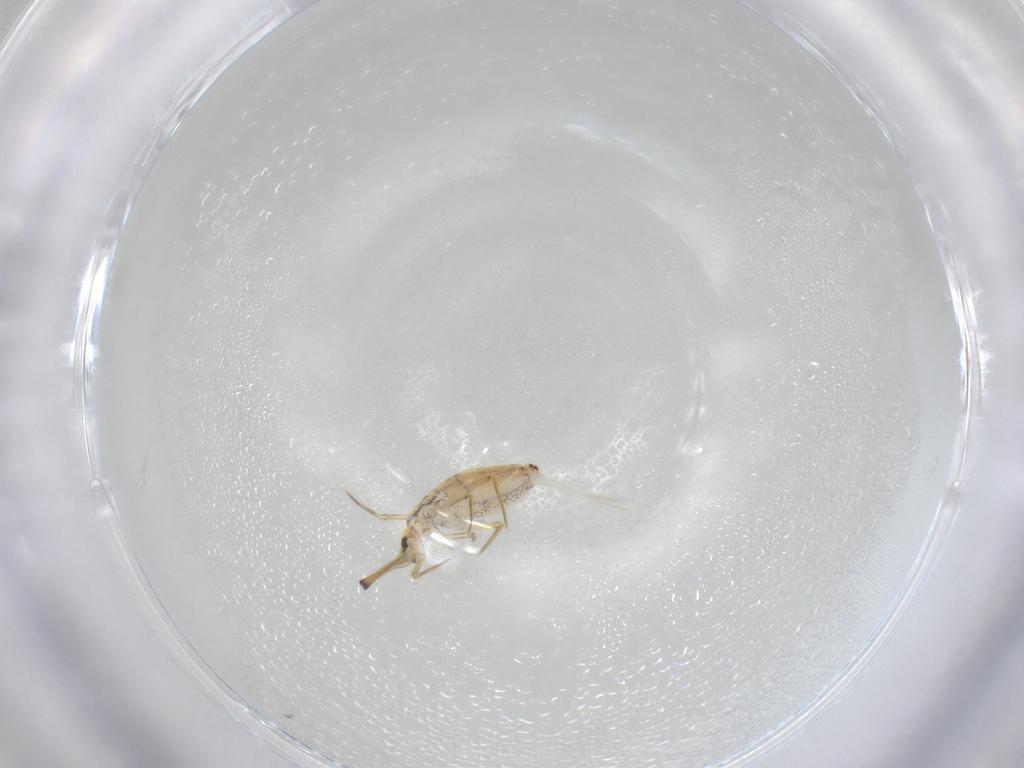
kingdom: Animalia
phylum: Arthropoda
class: Collembola
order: Entomobryomorpha
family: Paronellidae
